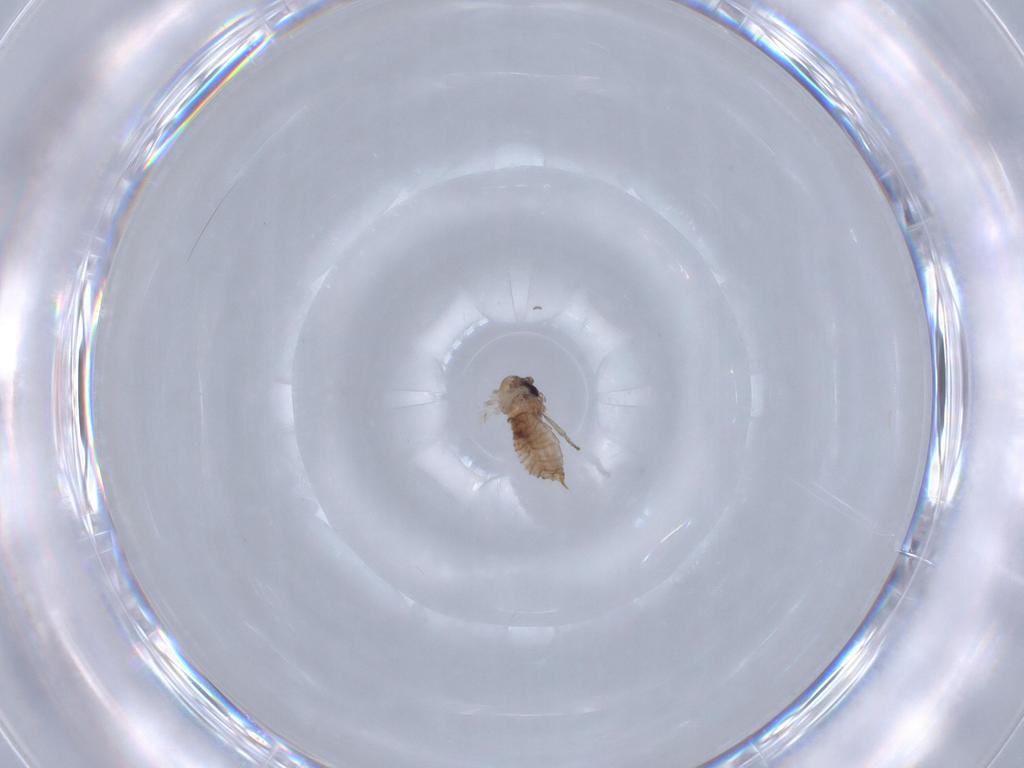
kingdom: Animalia
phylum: Arthropoda
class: Insecta
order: Diptera
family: Psychodidae
